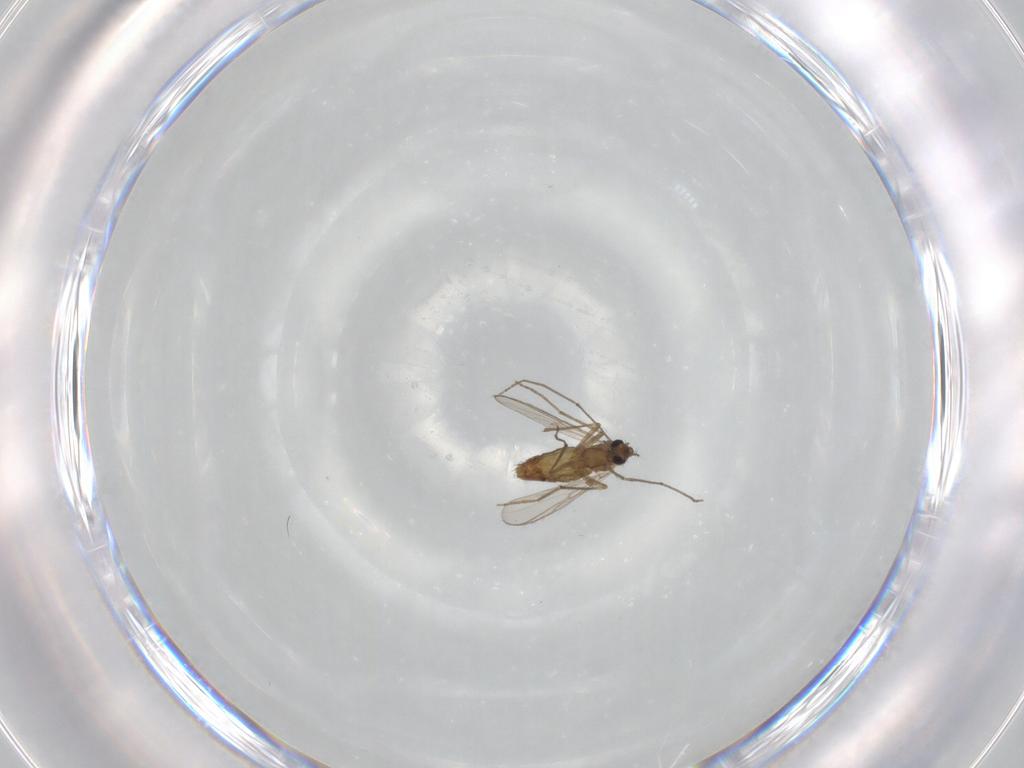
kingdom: Animalia
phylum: Arthropoda
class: Insecta
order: Diptera
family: Chironomidae
